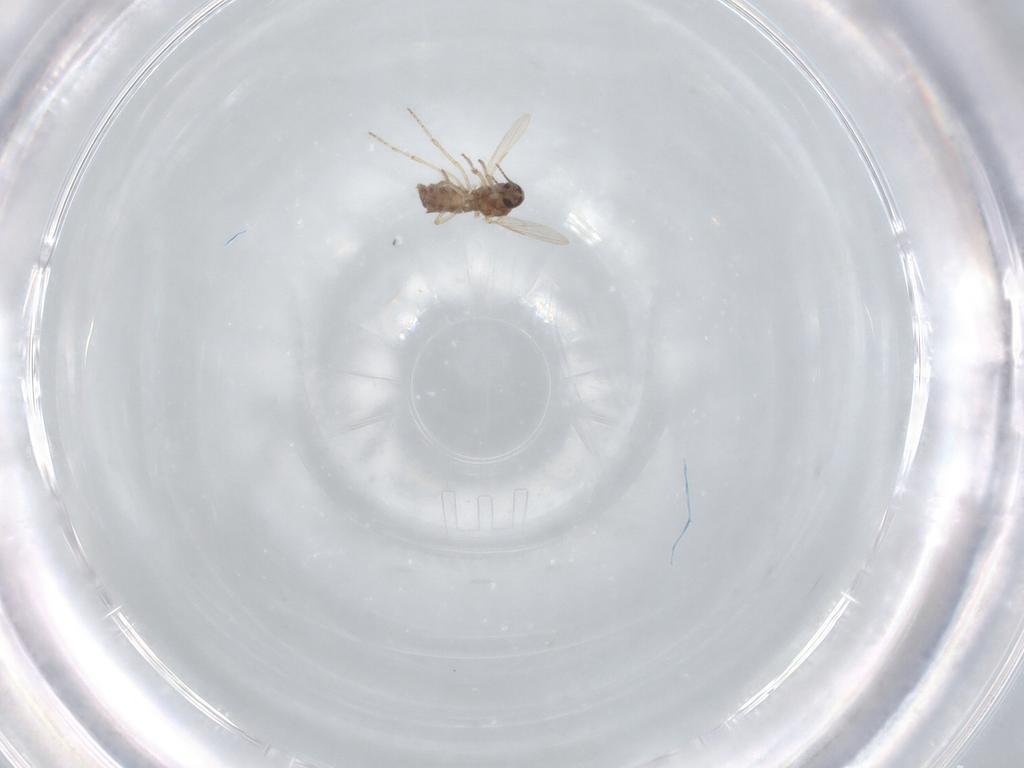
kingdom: Animalia
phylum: Arthropoda
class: Insecta
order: Diptera
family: Ceratopogonidae
